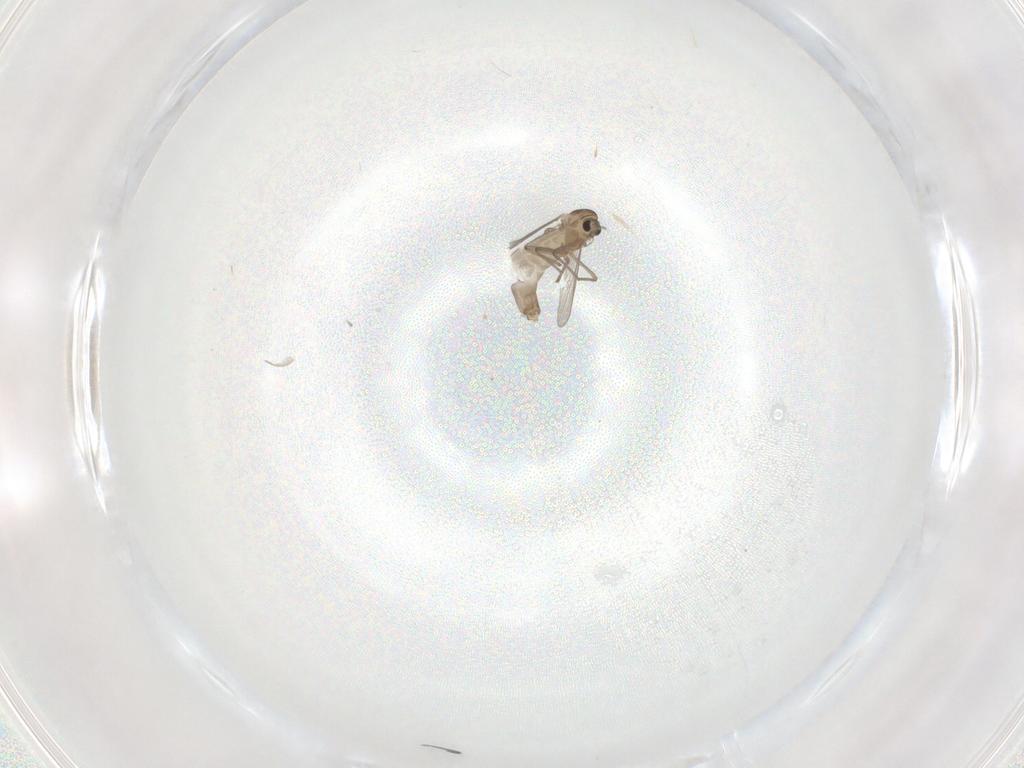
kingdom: Animalia
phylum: Arthropoda
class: Insecta
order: Diptera
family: Chironomidae
